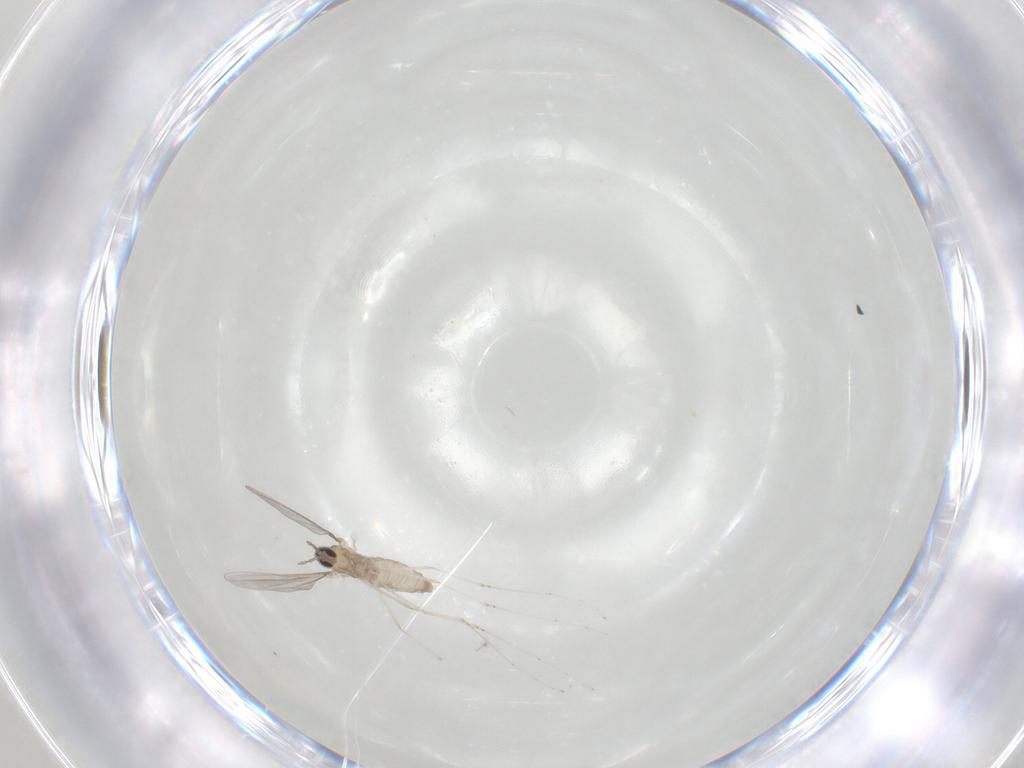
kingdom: Animalia
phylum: Arthropoda
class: Insecta
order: Diptera
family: Cecidomyiidae
